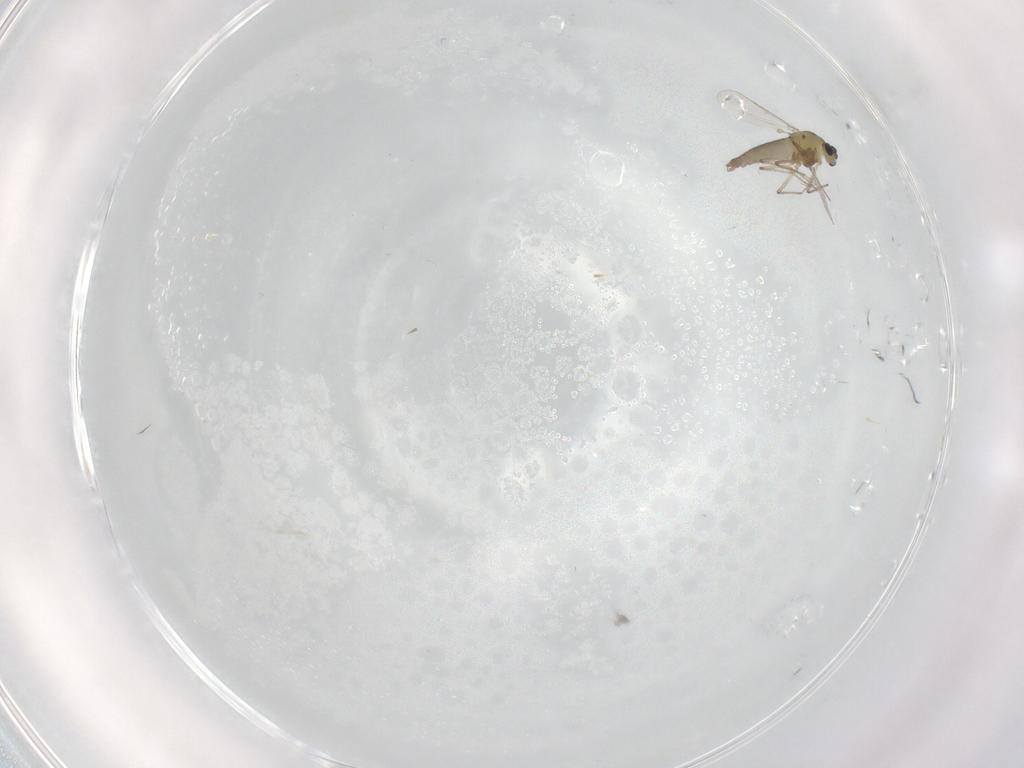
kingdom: Animalia
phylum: Arthropoda
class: Insecta
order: Diptera
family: Chironomidae
